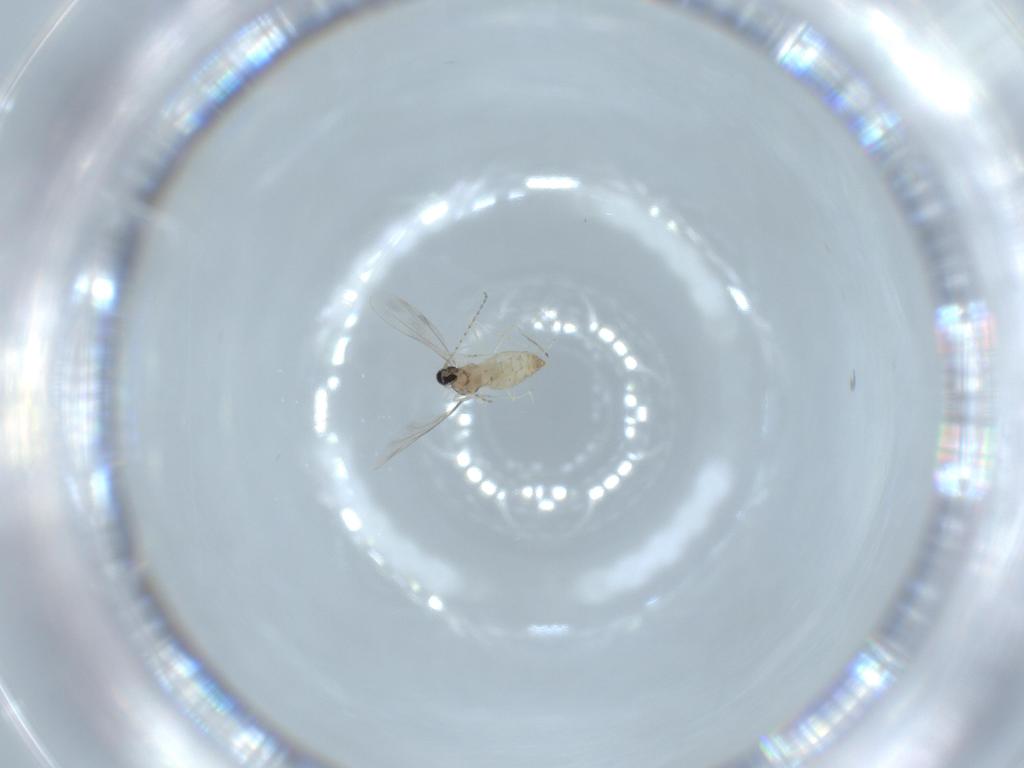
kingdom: Animalia
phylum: Arthropoda
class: Insecta
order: Diptera
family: Cecidomyiidae
